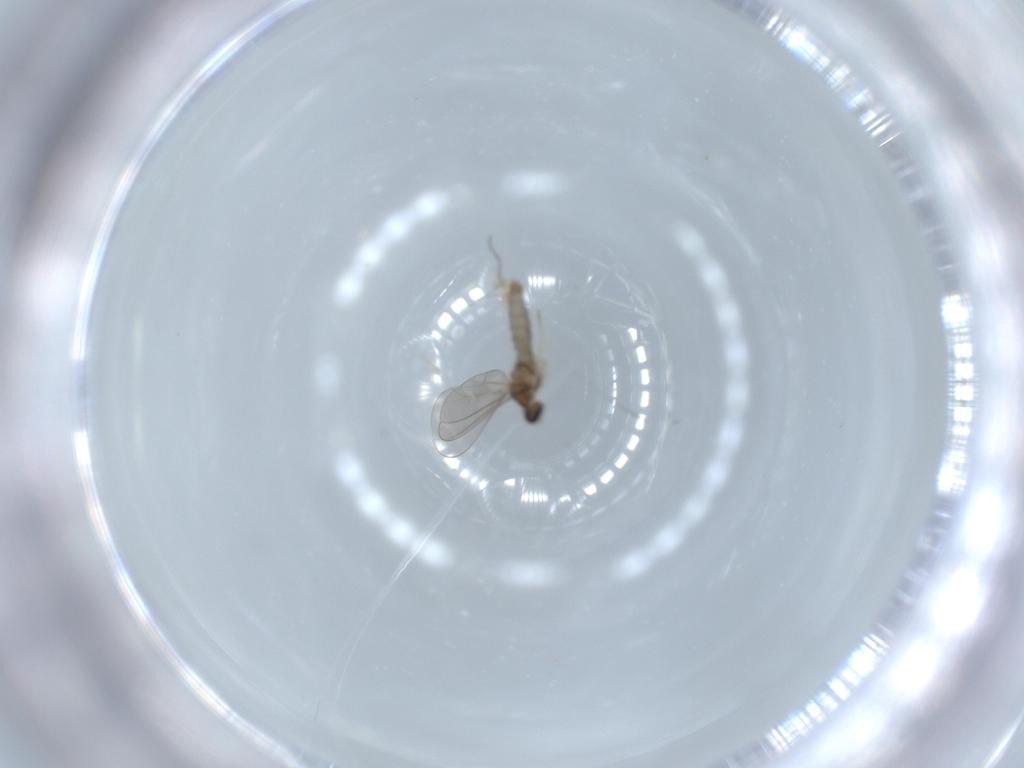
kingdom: Animalia
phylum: Arthropoda
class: Insecta
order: Diptera
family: Cecidomyiidae
